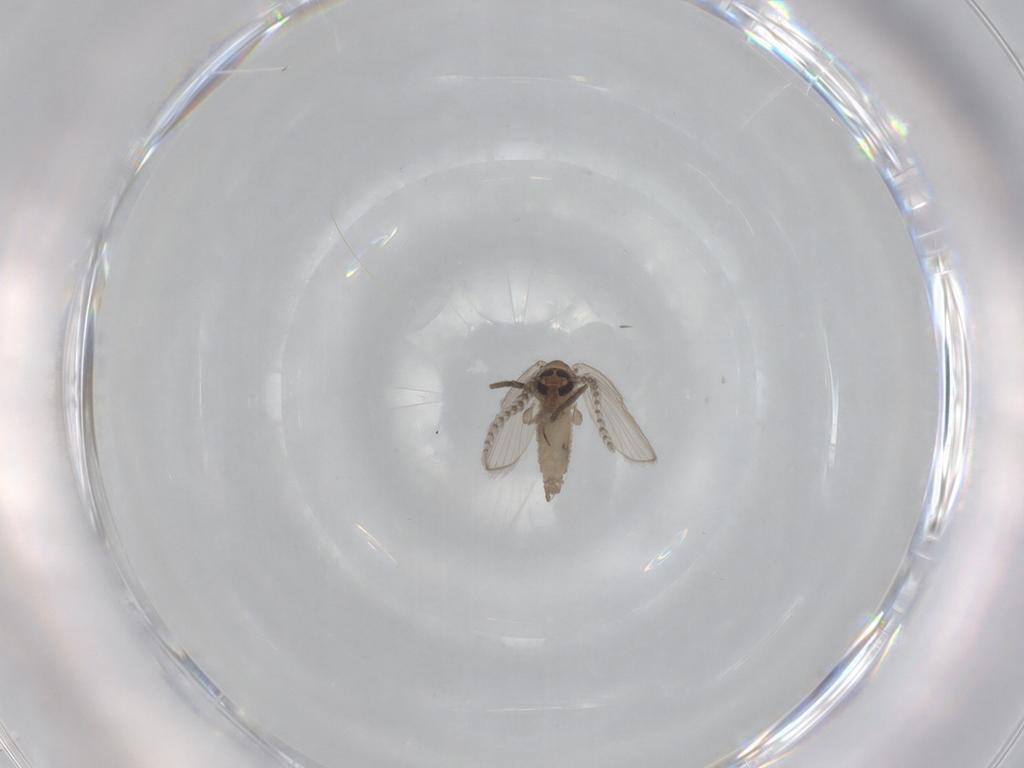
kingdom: Animalia
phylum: Arthropoda
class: Insecta
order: Diptera
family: Psychodidae
